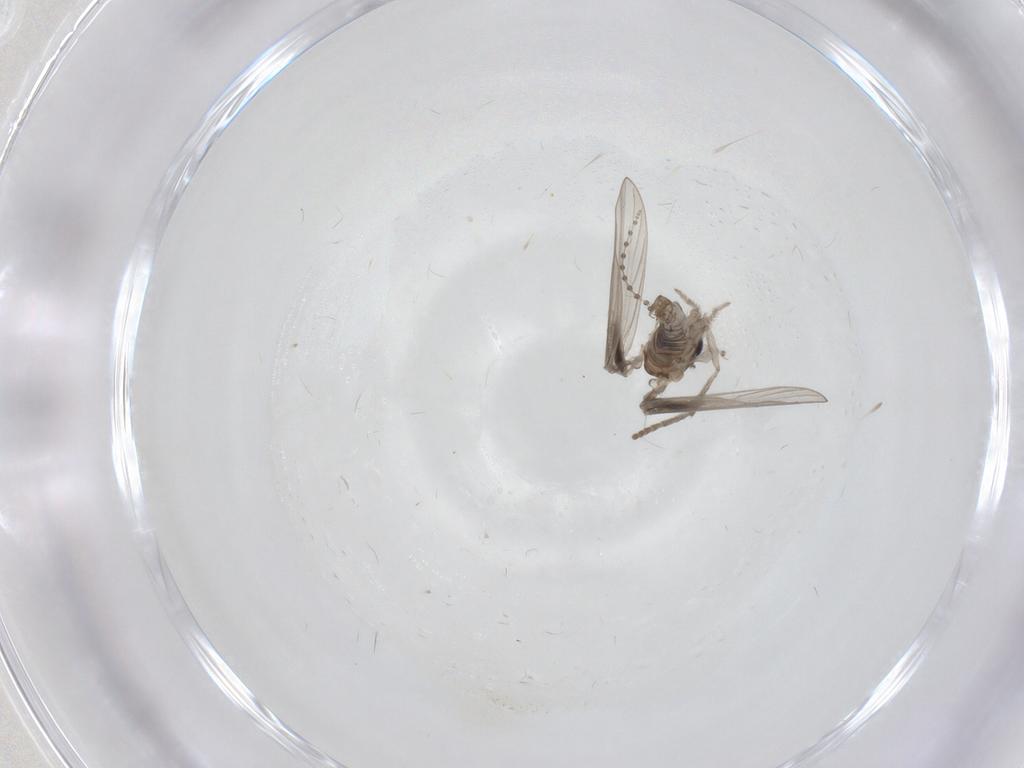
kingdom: Animalia
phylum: Arthropoda
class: Insecta
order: Diptera
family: Psychodidae
